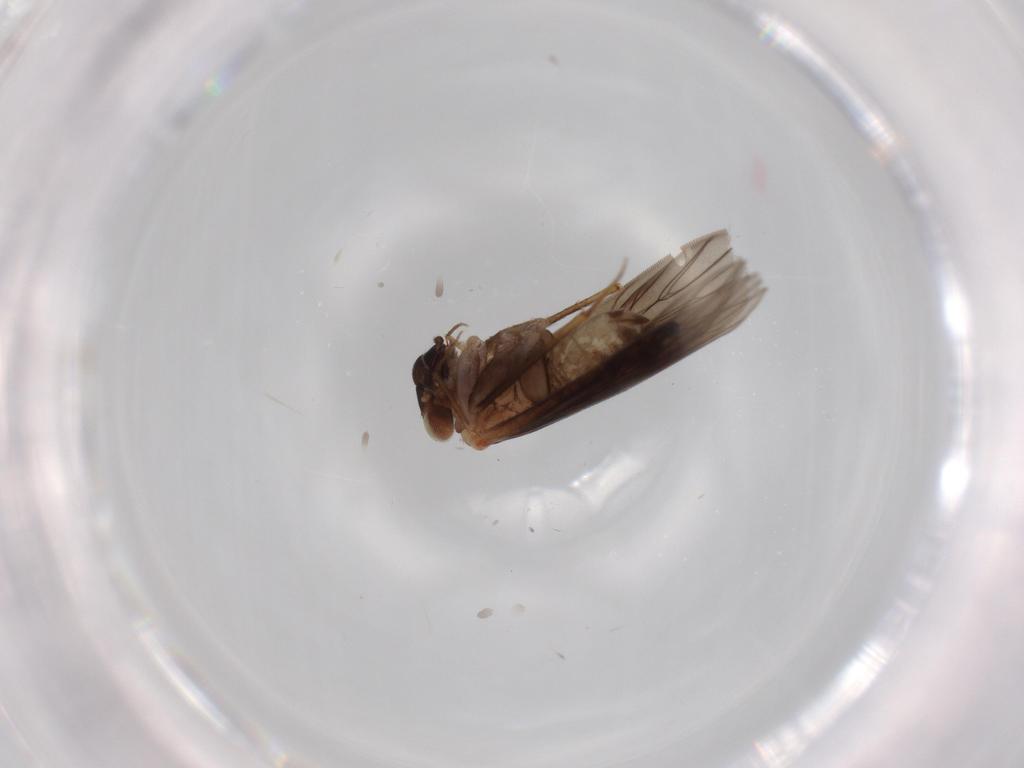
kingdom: Animalia
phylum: Arthropoda
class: Insecta
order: Psocodea
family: Lepidopsocidae
